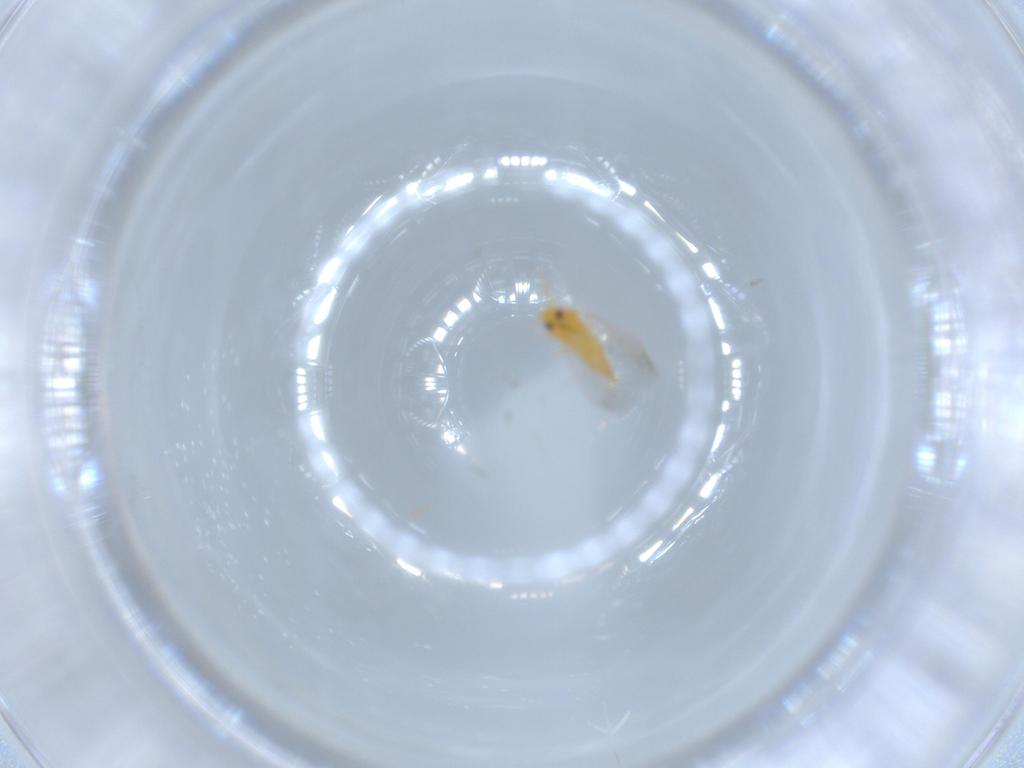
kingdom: Animalia
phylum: Arthropoda
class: Insecta
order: Hemiptera
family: Aleyrodidae
